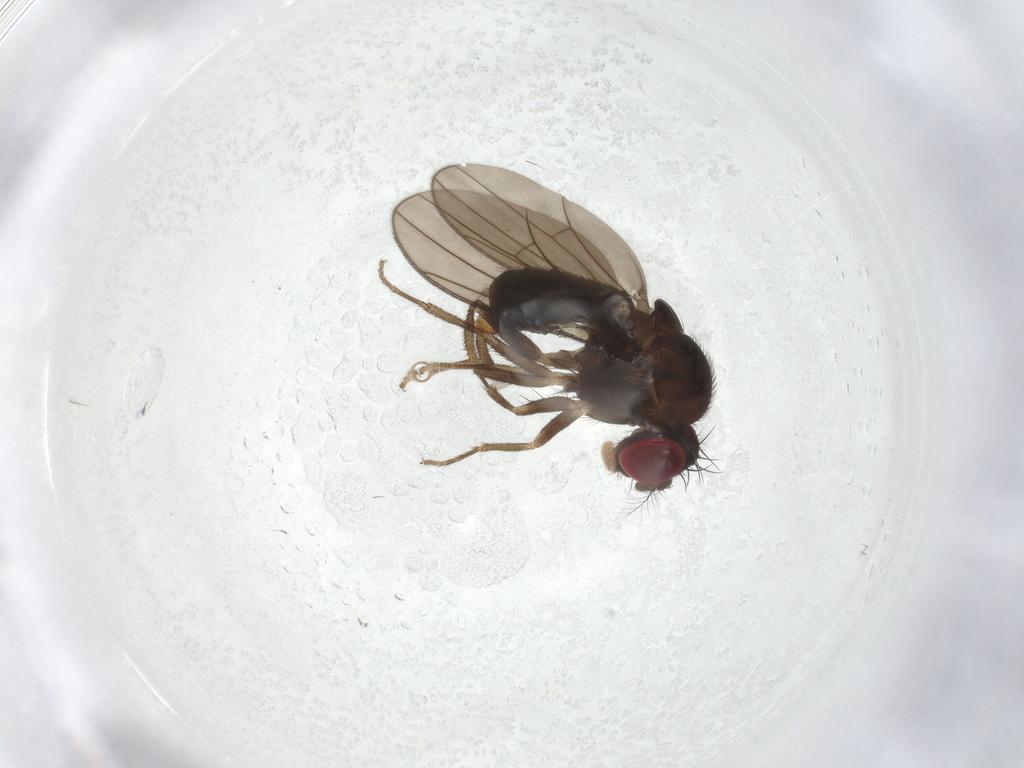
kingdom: Animalia
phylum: Arthropoda
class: Insecta
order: Diptera
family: Drosophilidae
